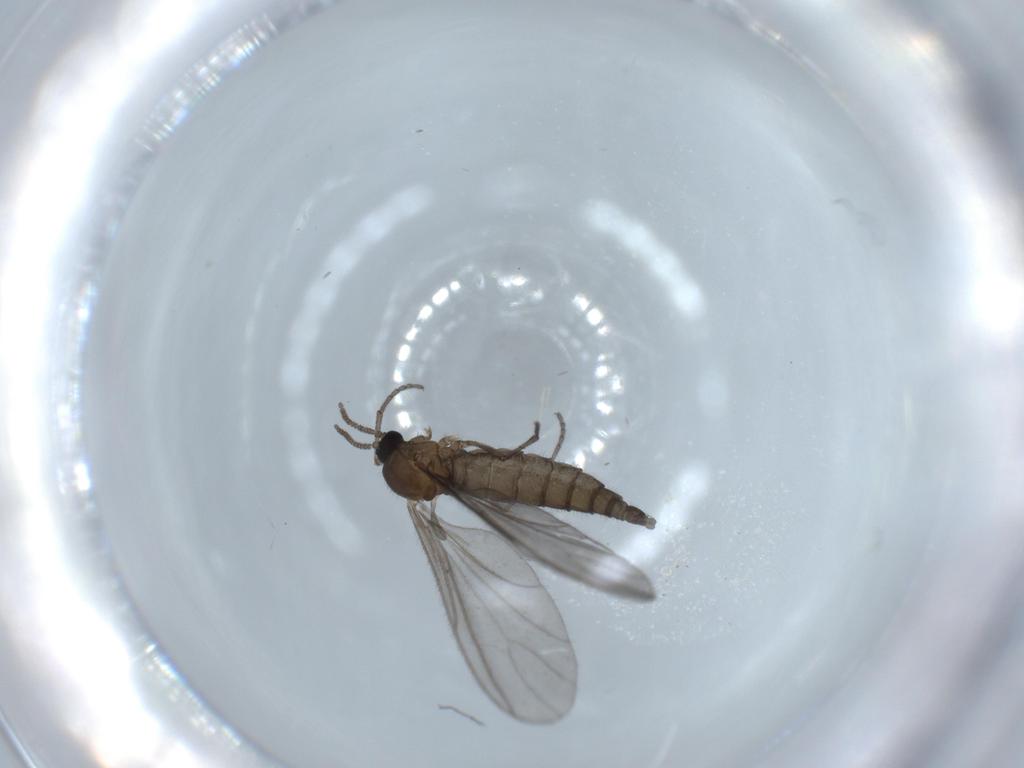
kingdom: Animalia
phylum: Arthropoda
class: Insecta
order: Diptera
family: Sciaridae
